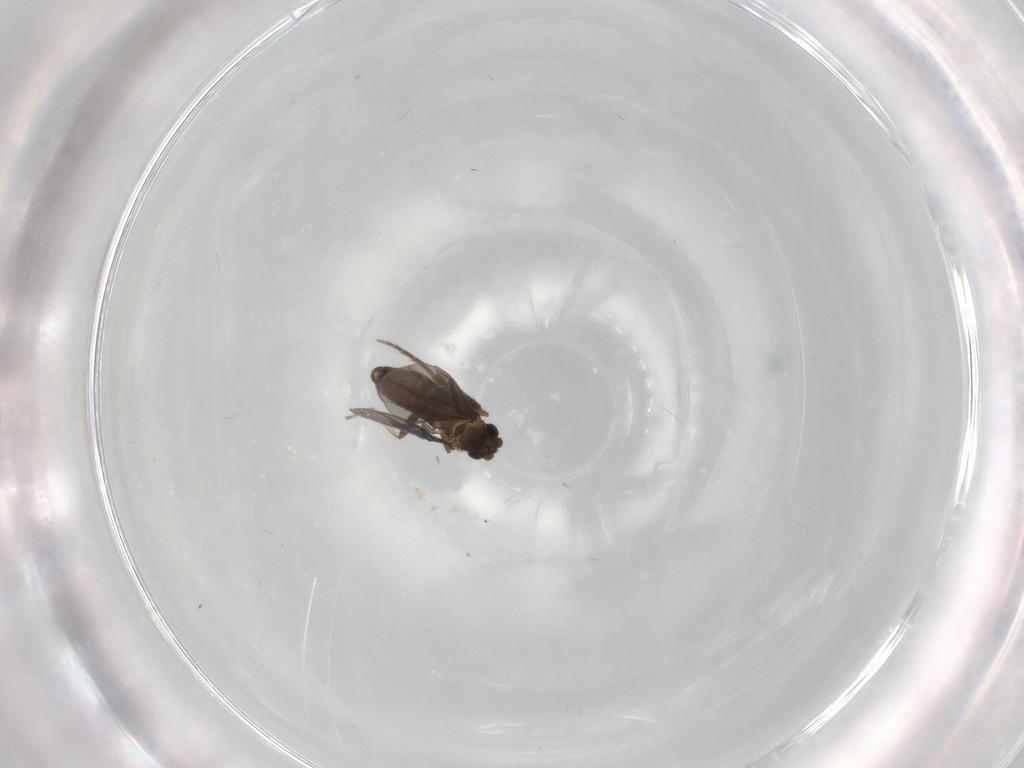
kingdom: Animalia
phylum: Arthropoda
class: Insecta
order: Diptera
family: Phoridae
